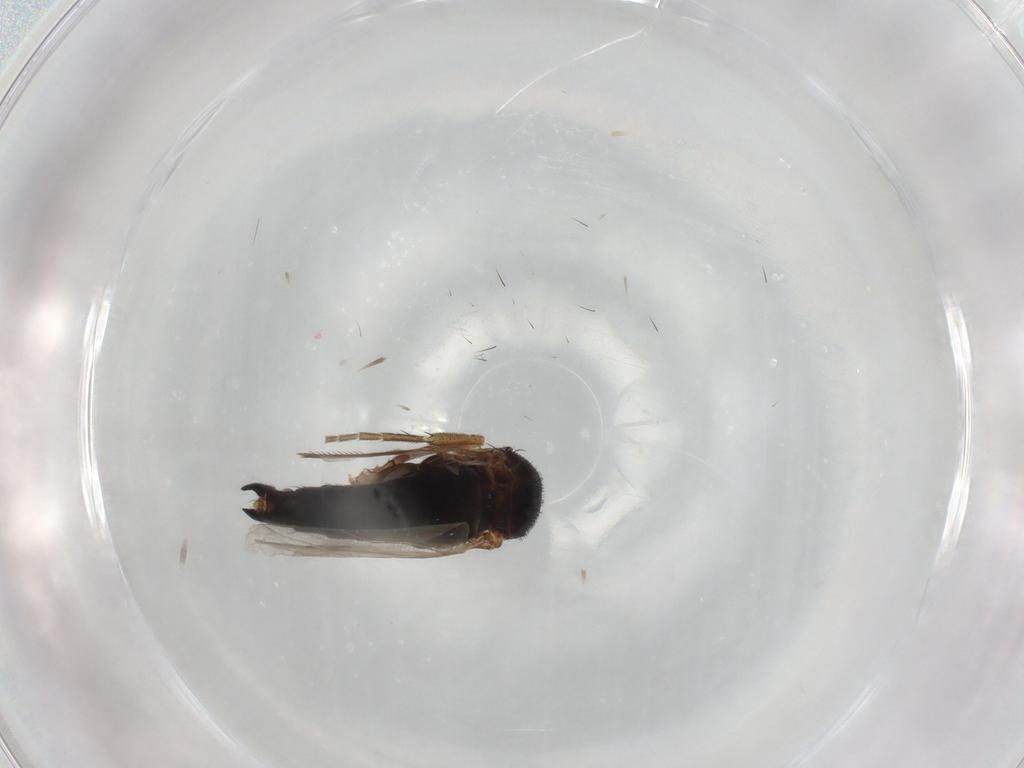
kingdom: Animalia
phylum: Arthropoda
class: Insecta
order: Diptera
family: Phoridae
